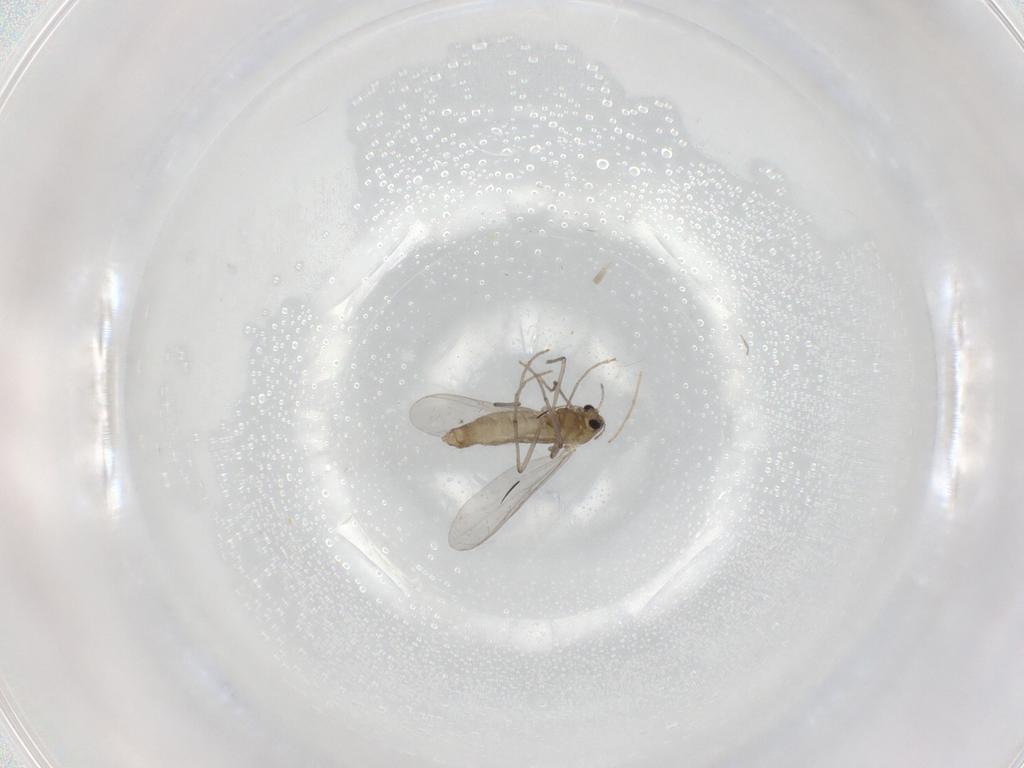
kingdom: Animalia
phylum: Arthropoda
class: Insecta
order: Diptera
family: Chironomidae
